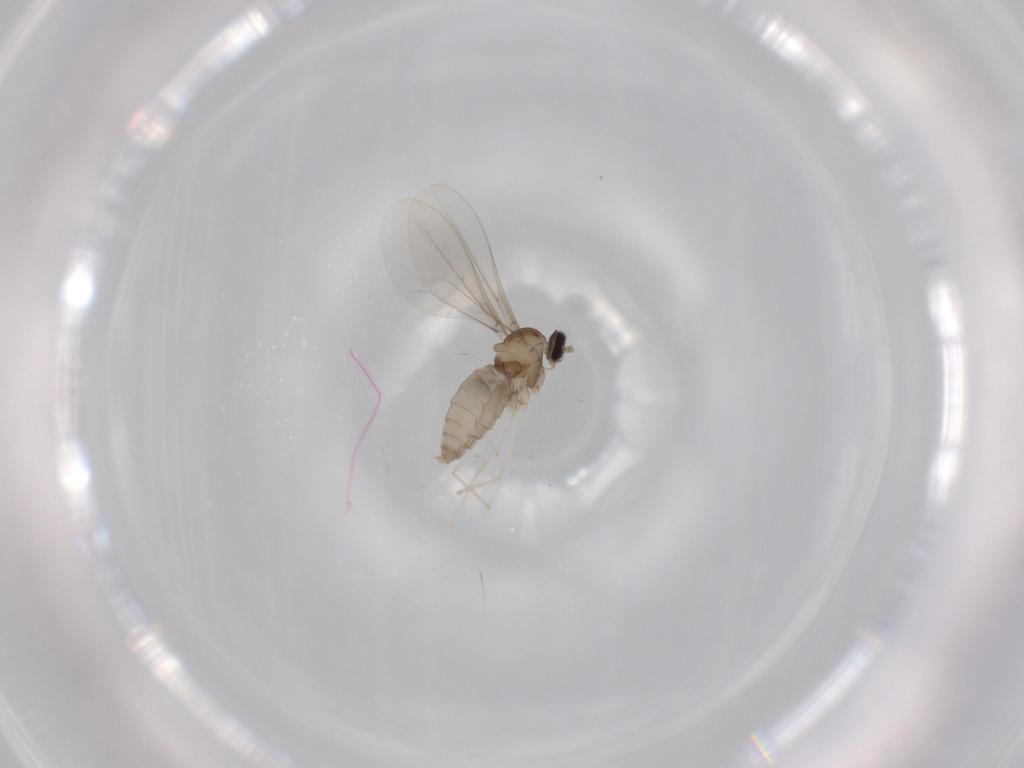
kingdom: Animalia
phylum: Arthropoda
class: Insecta
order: Diptera
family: Cecidomyiidae
